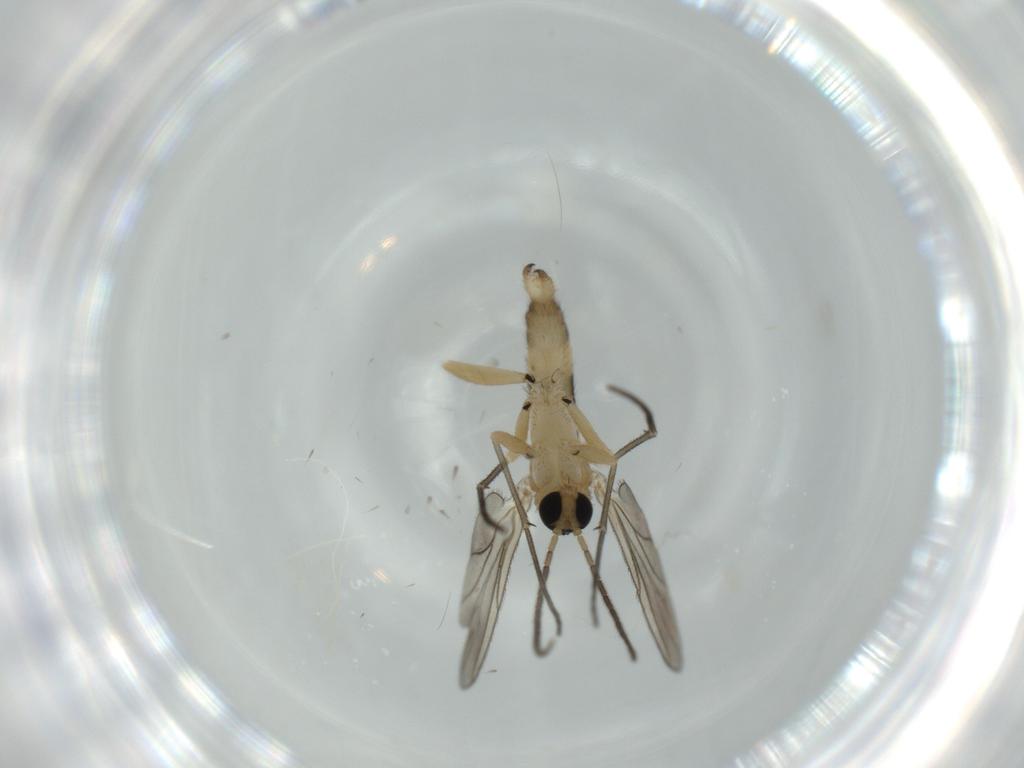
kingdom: Animalia
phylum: Arthropoda
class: Insecta
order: Diptera
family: Sciaridae
